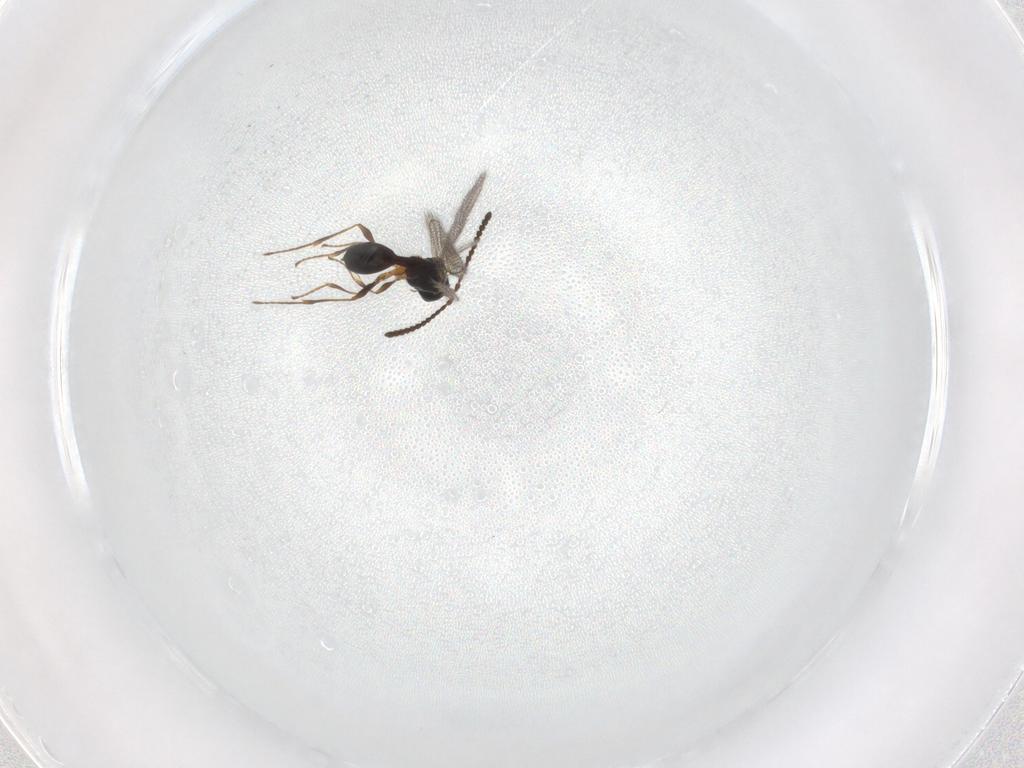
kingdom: Animalia
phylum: Arthropoda
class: Insecta
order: Hymenoptera
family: Diapriidae
